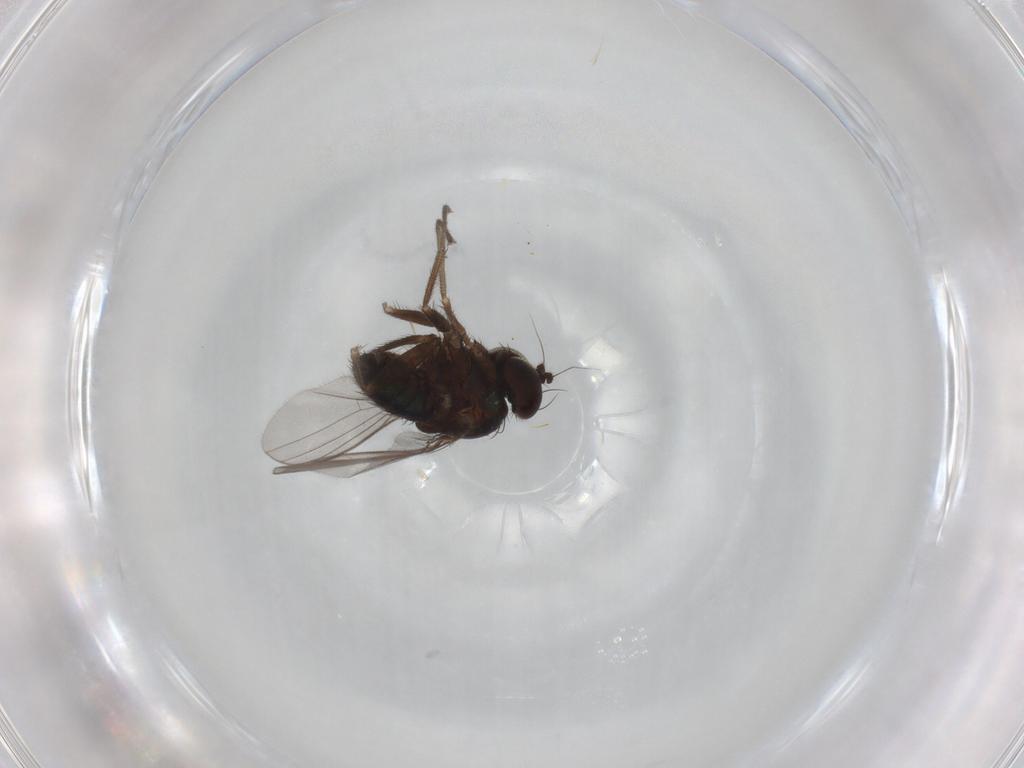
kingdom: Animalia
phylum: Arthropoda
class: Insecta
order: Diptera
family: Dolichopodidae
